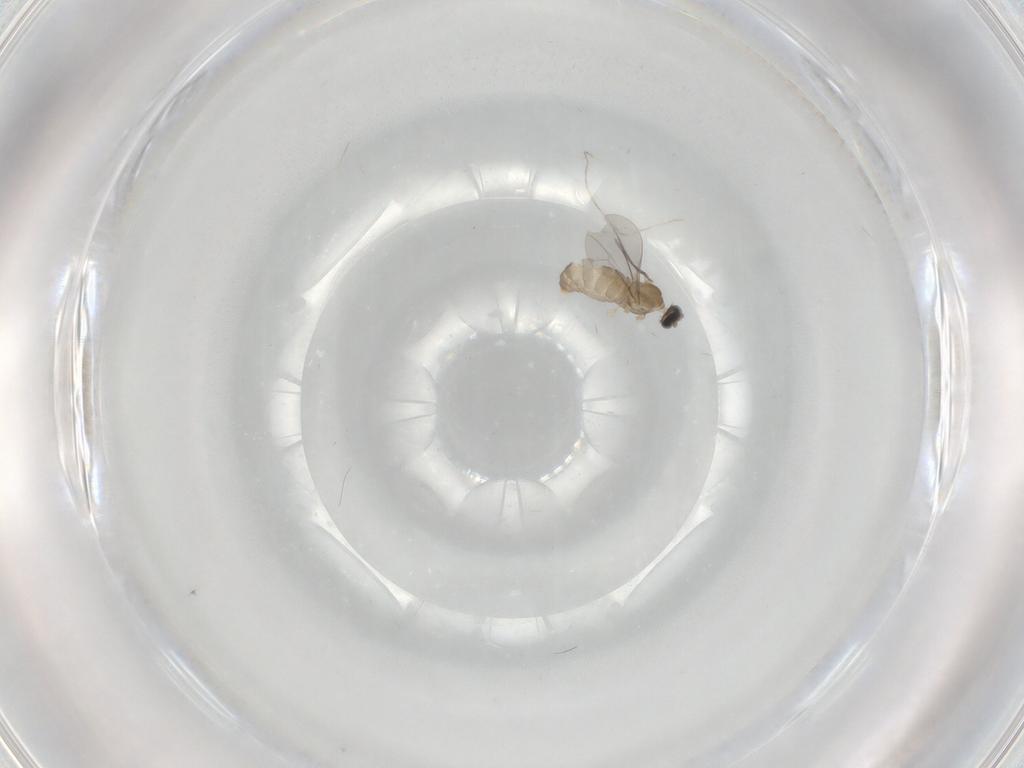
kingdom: Animalia
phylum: Arthropoda
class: Insecta
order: Diptera
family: Cecidomyiidae
